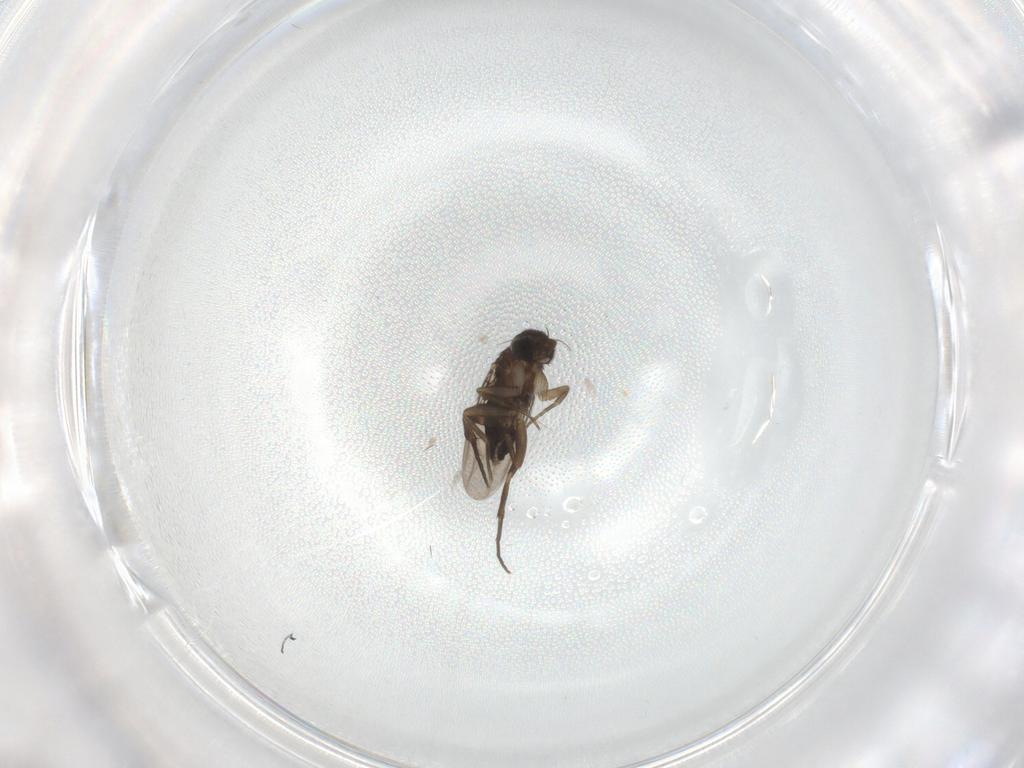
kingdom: Animalia
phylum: Arthropoda
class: Insecta
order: Diptera
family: Phoridae
